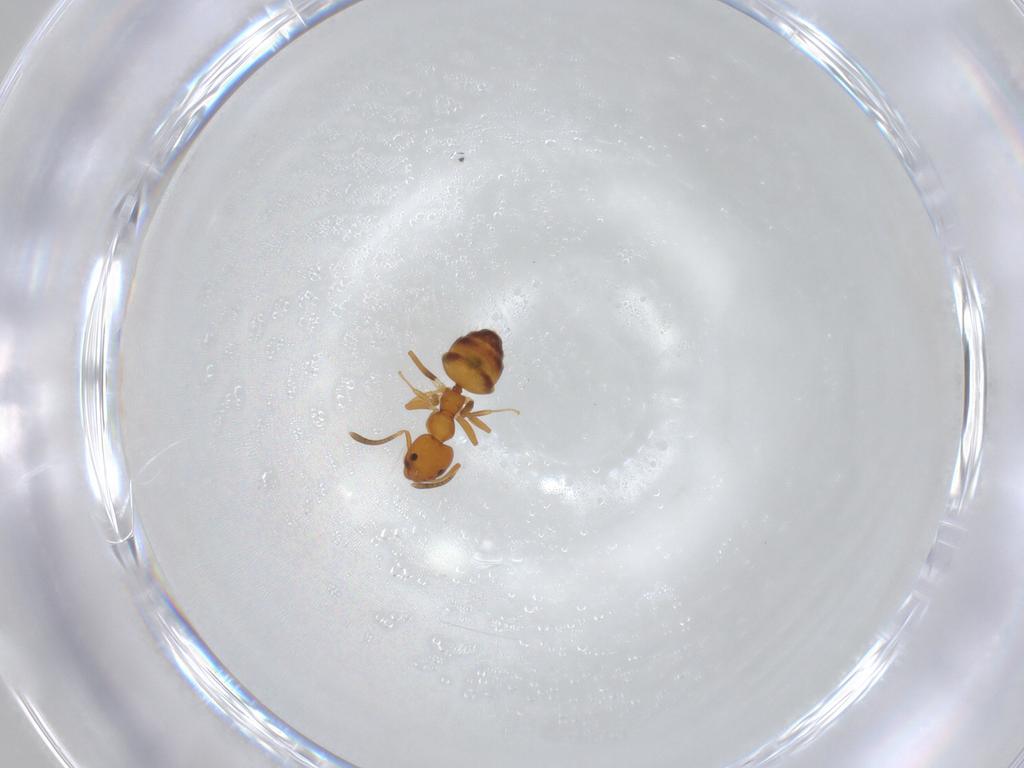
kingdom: Animalia
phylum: Arthropoda
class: Insecta
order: Hymenoptera
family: Formicidae
